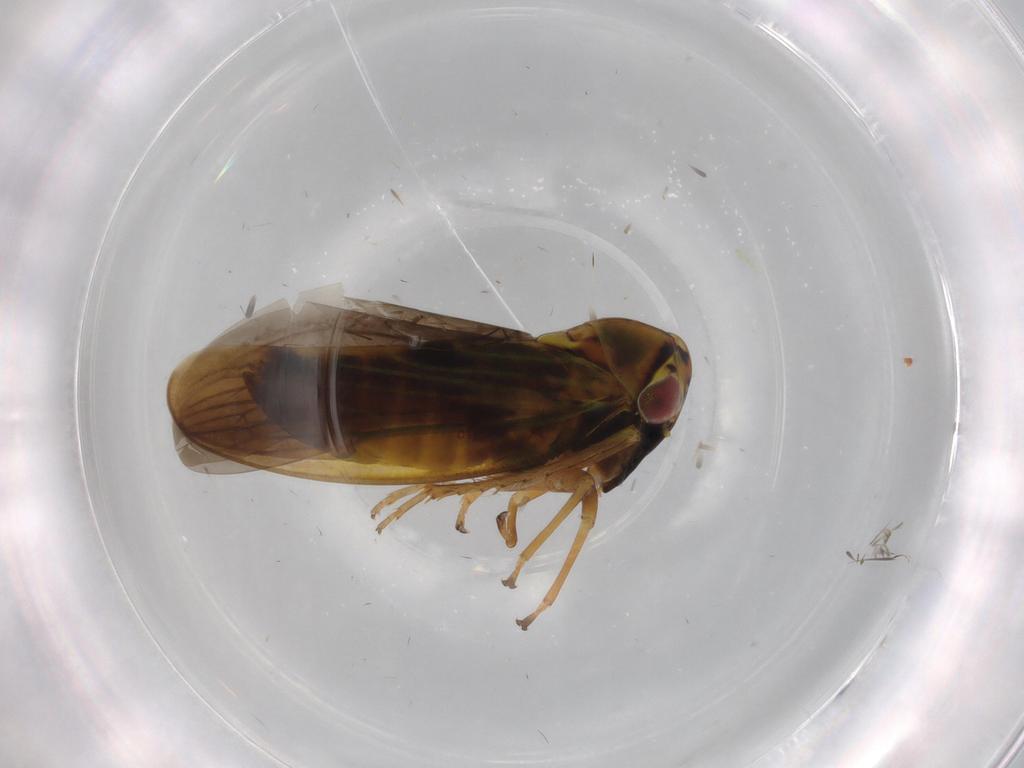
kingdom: Animalia
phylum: Arthropoda
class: Insecta
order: Hemiptera
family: Cicadellidae
